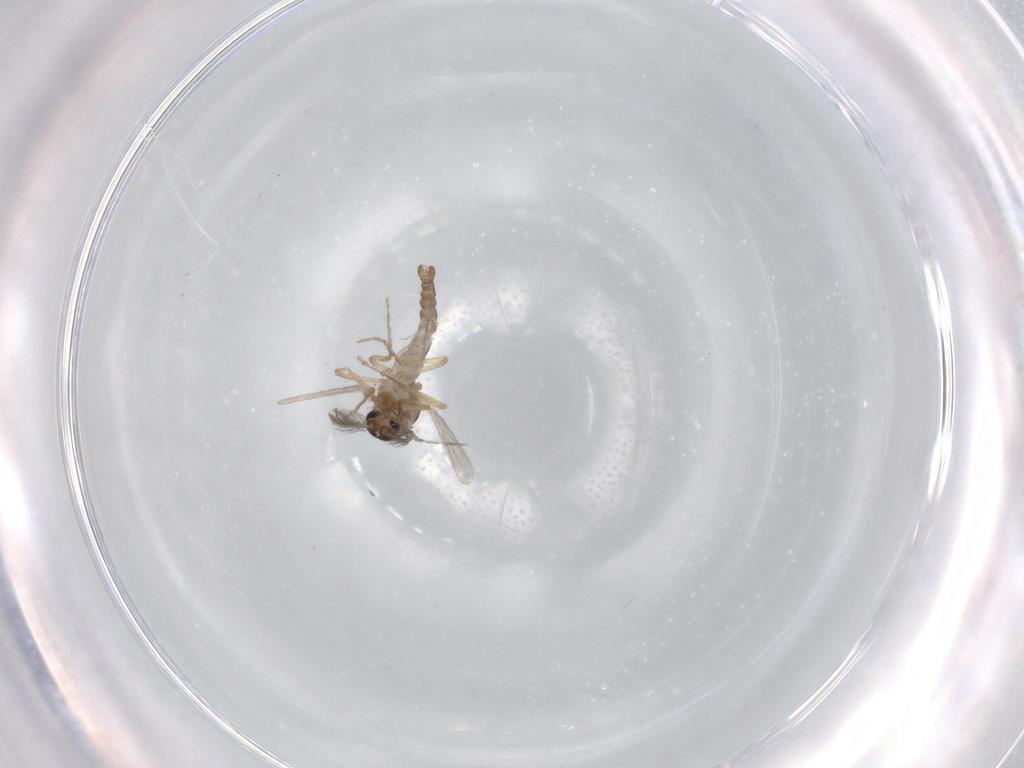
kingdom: Animalia
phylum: Arthropoda
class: Insecta
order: Diptera
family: Ceratopogonidae
